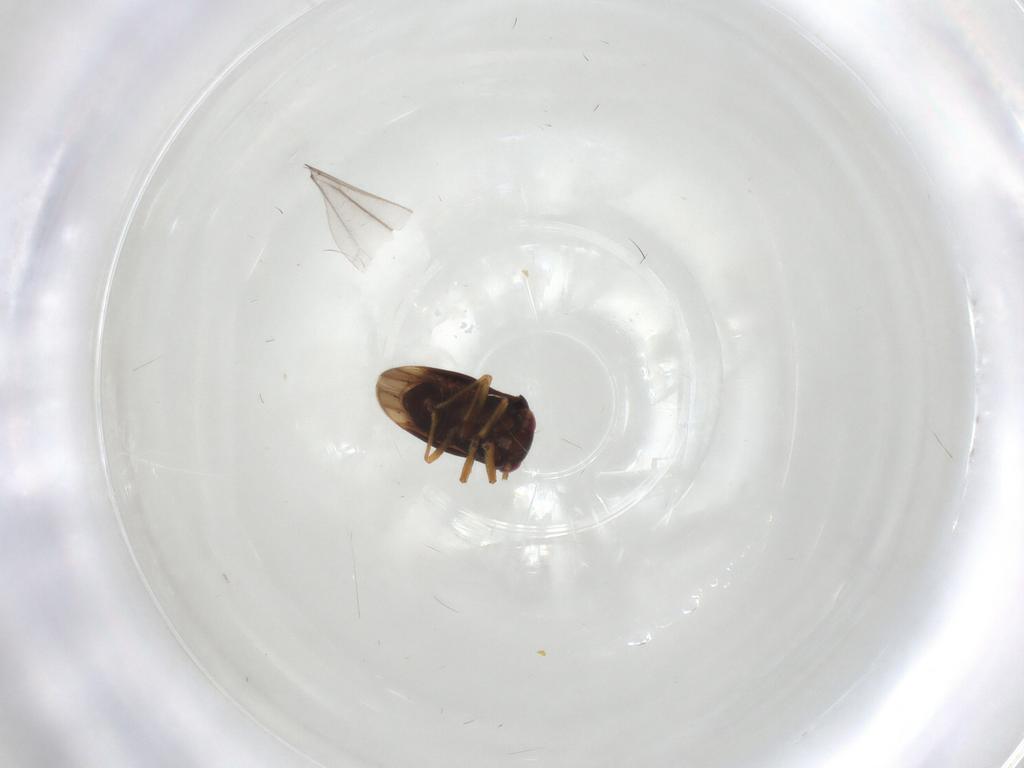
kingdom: Animalia
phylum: Arthropoda
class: Insecta
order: Hemiptera
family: Schizopteridae
